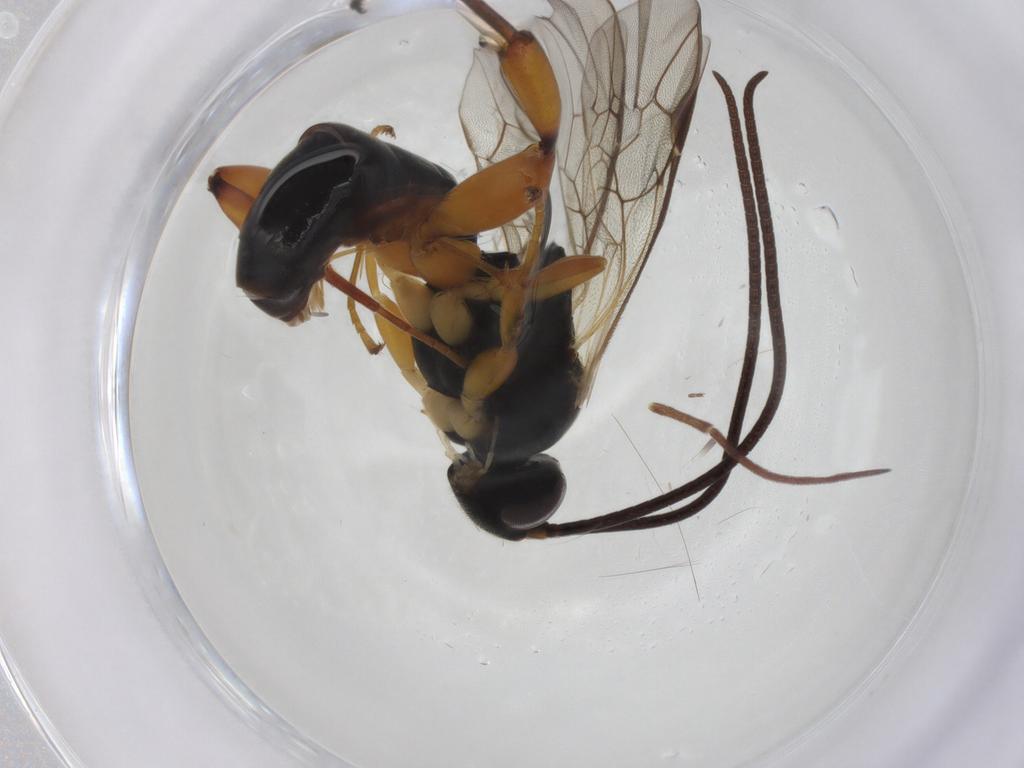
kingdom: Animalia
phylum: Arthropoda
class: Insecta
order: Hymenoptera
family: Ichneumonidae
